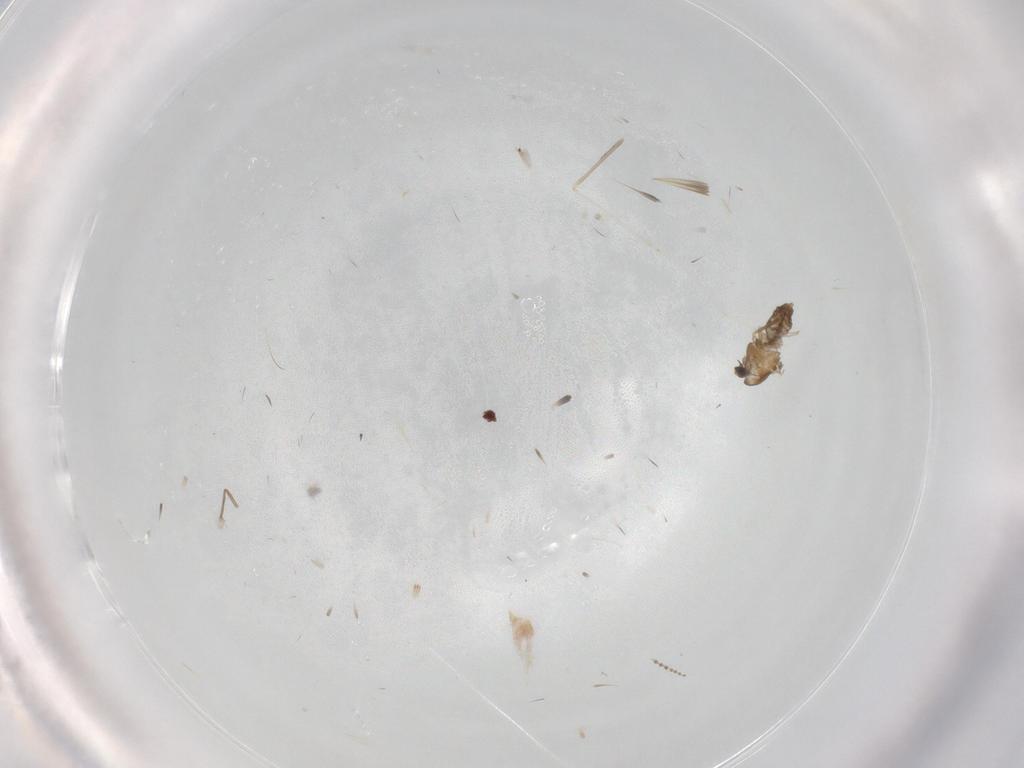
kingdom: Animalia
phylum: Arthropoda
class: Insecta
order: Diptera
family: Cecidomyiidae
